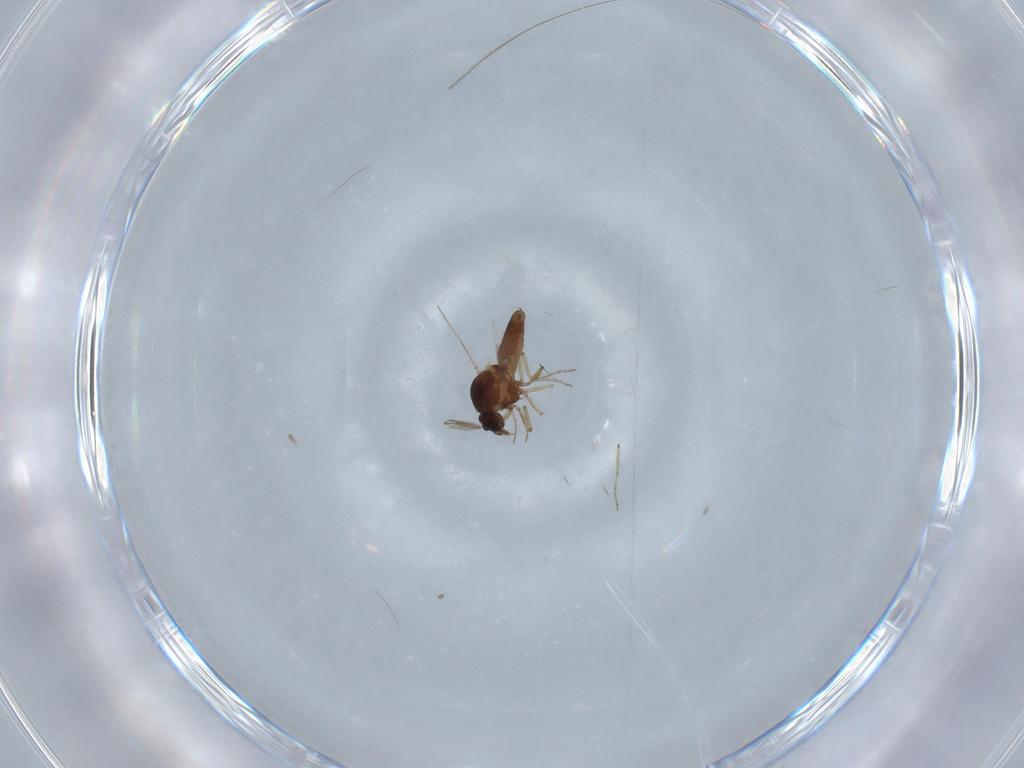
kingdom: Animalia
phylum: Arthropoda
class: Insecta
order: Diptera
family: Ceratopogonidae
